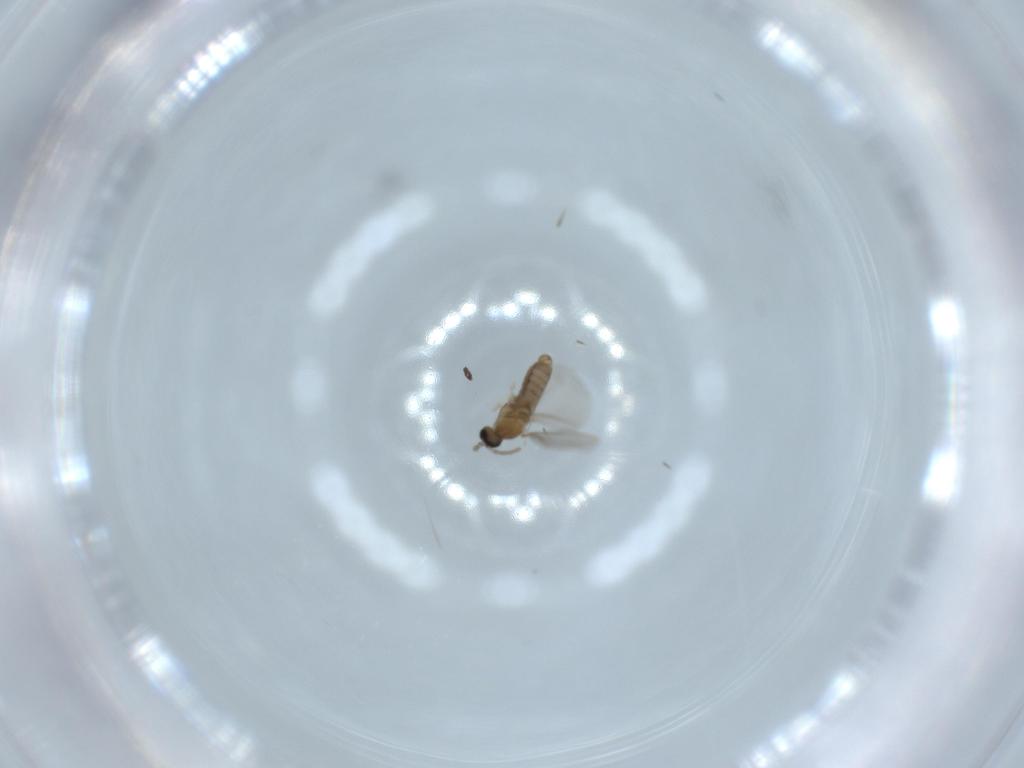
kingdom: Animalia
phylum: Arthropoda
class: Insecta
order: Diptera
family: Cecidomyiidae
